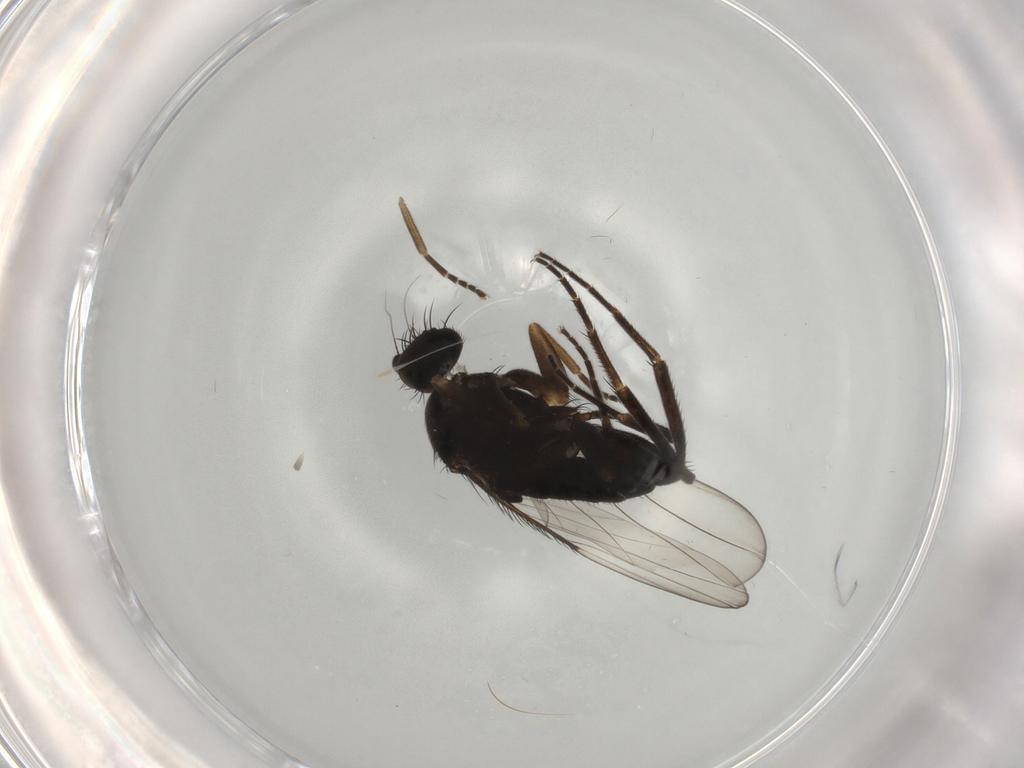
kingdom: Animalia
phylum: Arthropoda
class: Insecta
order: Diptera
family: Phoridae
